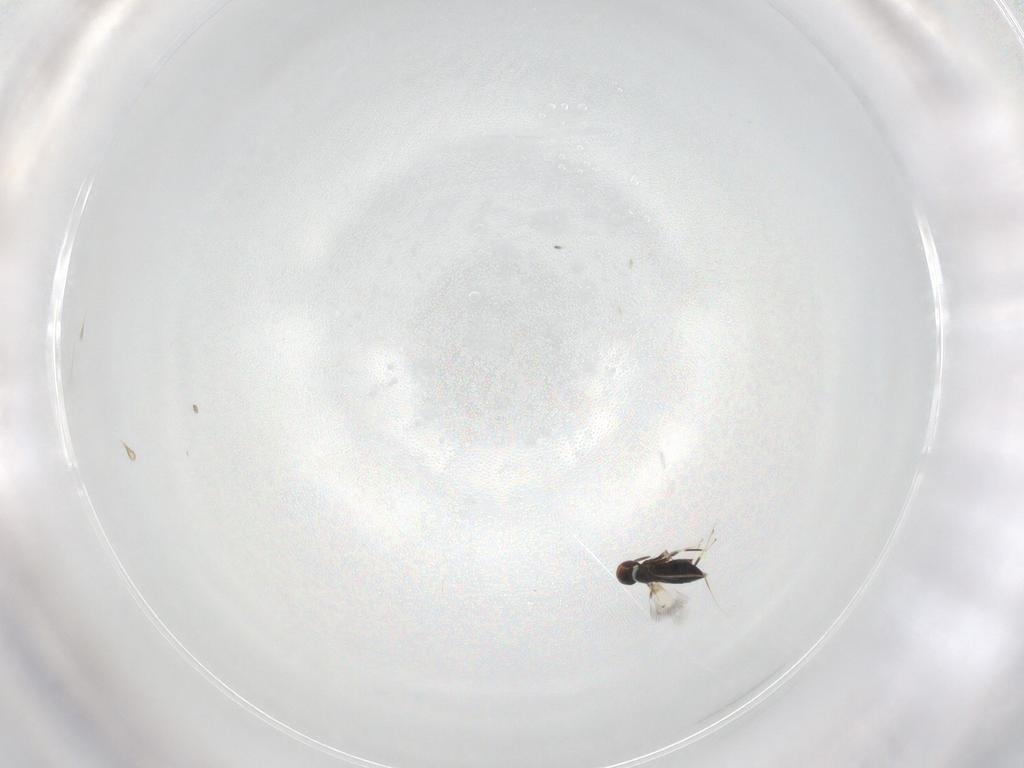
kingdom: Animalia
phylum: Arthropoda
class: Insecta
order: Hymenoptera
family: Signiphoridae
